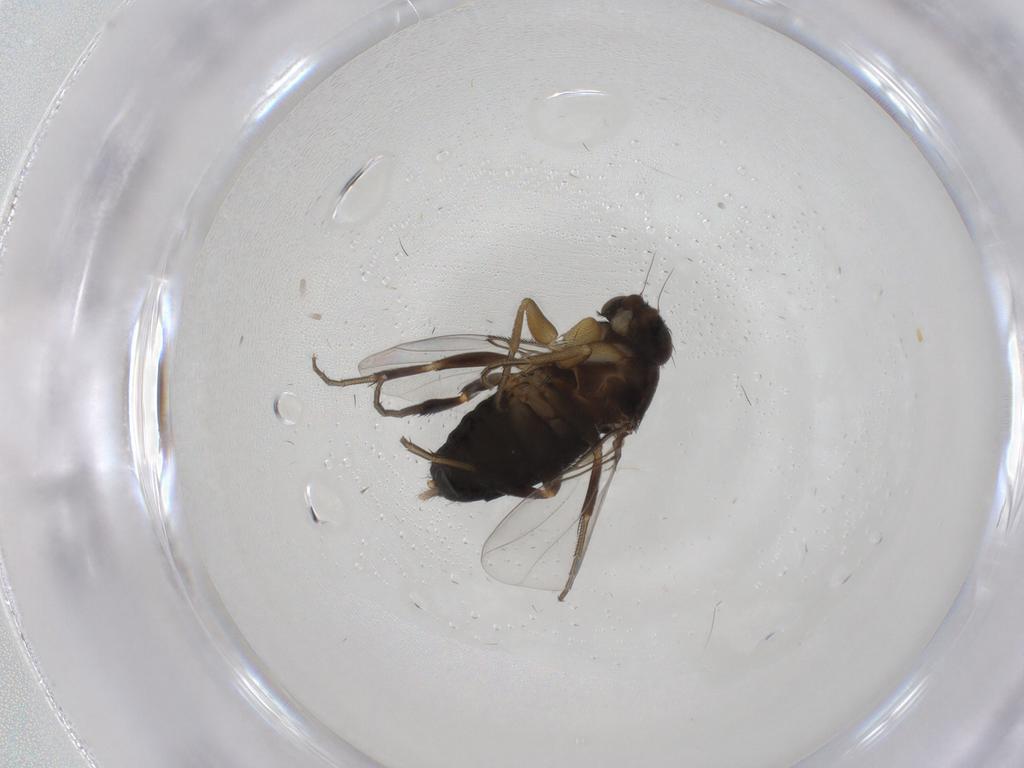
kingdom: Animalia
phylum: Arthropoda
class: Insecta
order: Diptera
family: Phoridae
